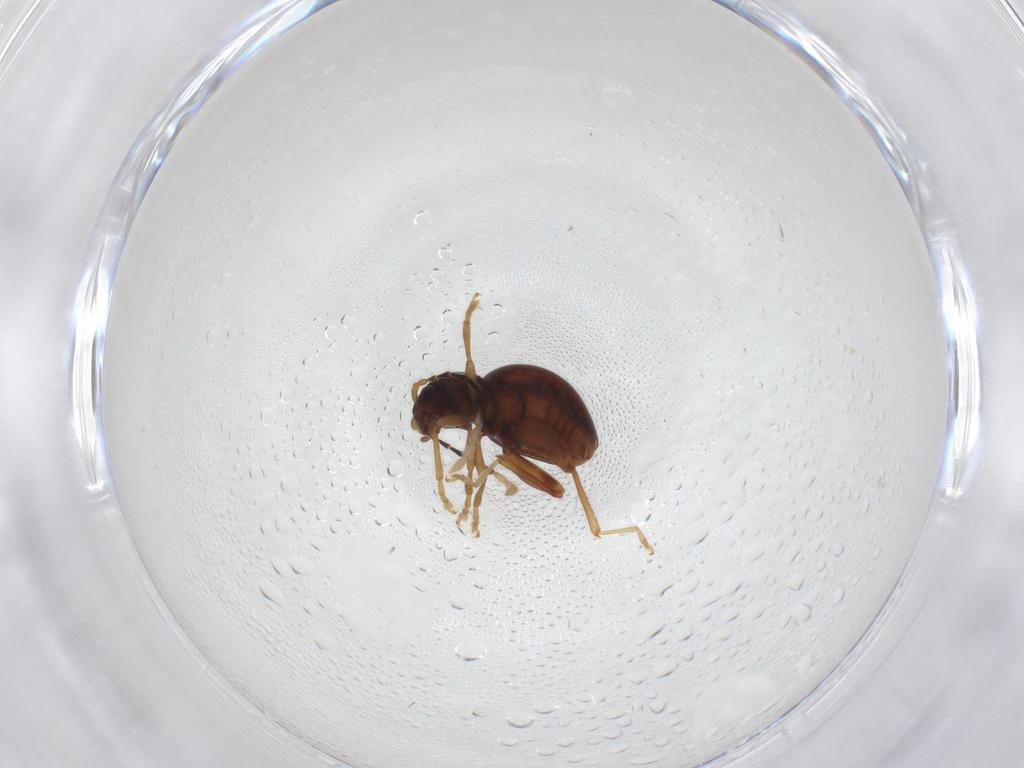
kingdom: Animalia
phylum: Arthropoda
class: Insecta
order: Coleoptera
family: Chrysomelidae
